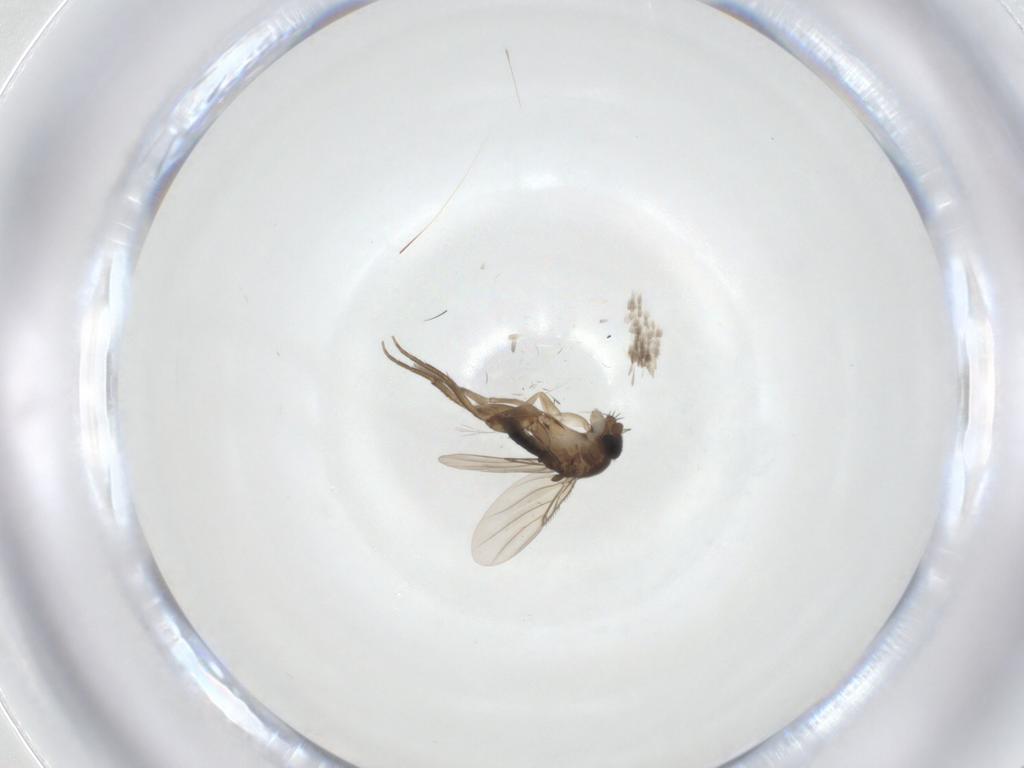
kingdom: Animalia
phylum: Arthropoda
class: Insecta
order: Diptera
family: Phoridae
